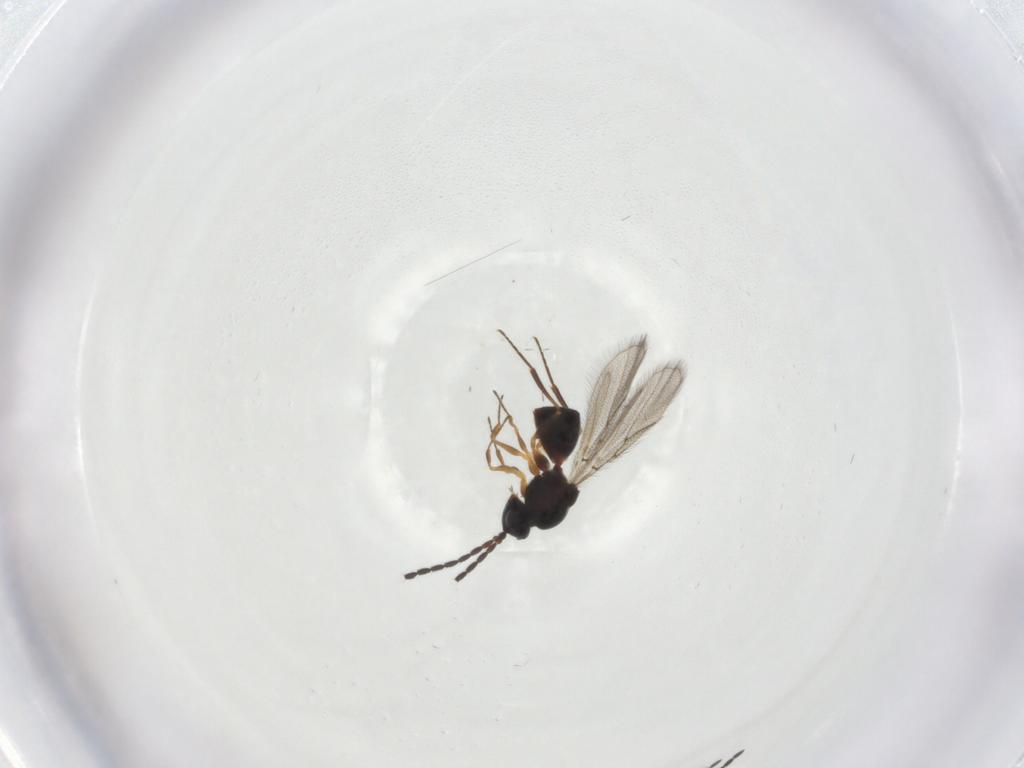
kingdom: Animalia
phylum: Arthropoda
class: Insecta
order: Hymenoptera
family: Figitidae
